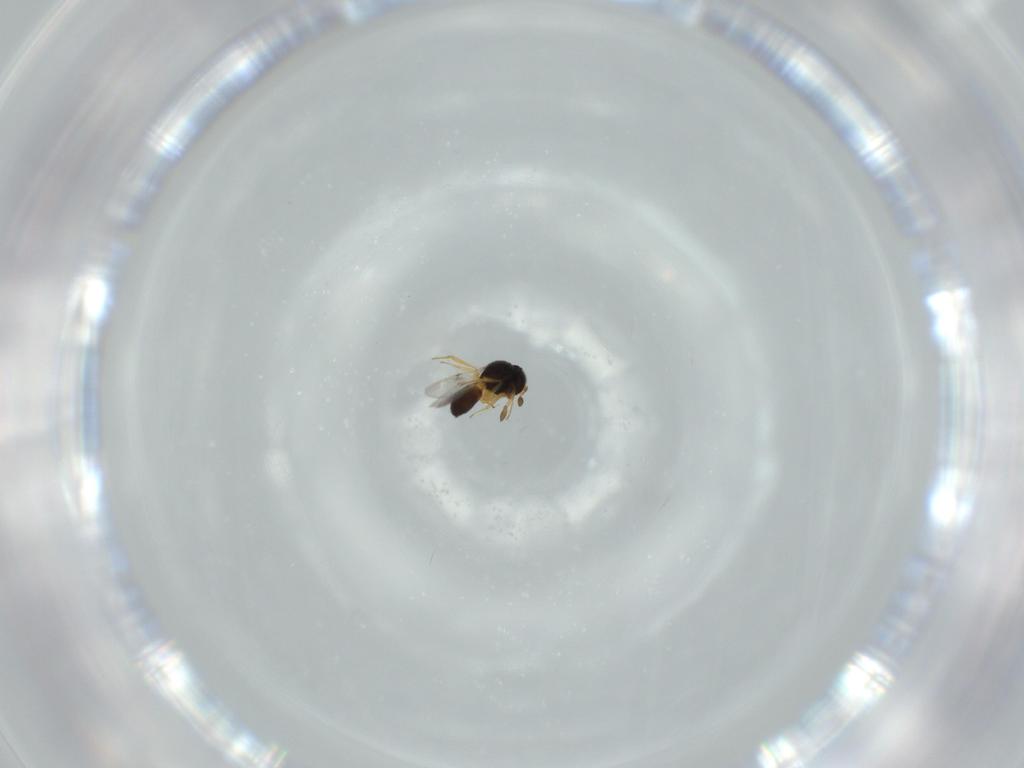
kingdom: Animalia
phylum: Arthropoda
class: Insecta
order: Hymenoptera
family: Scelionidae
